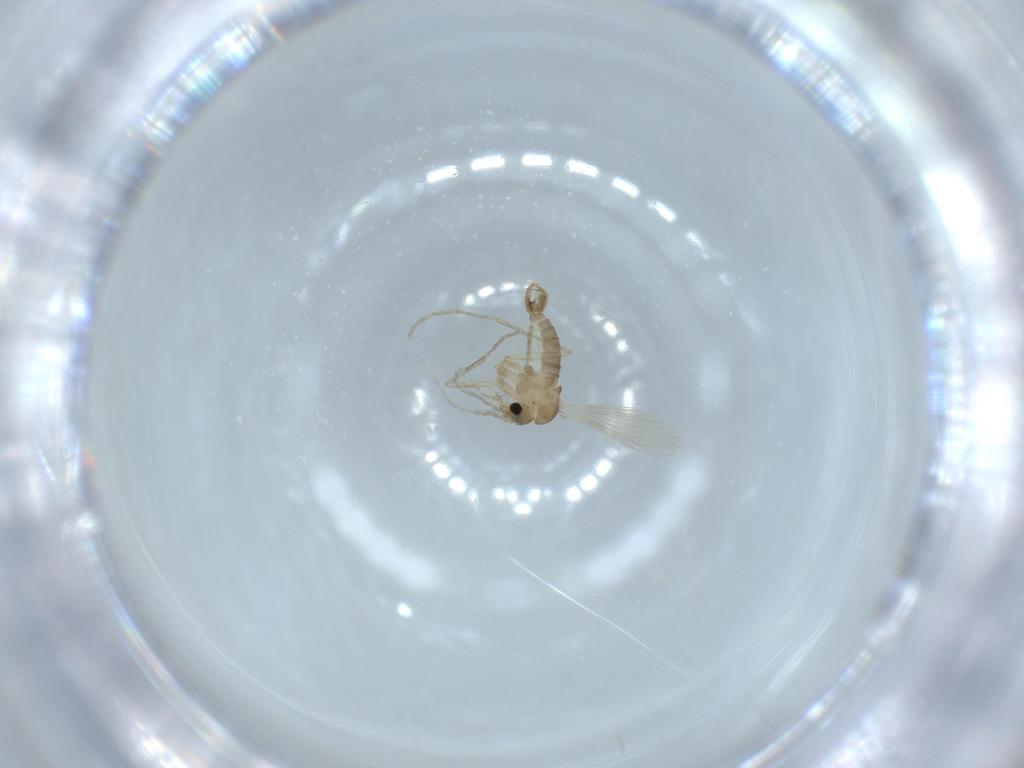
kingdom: Animalia
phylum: Arthropoda
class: Insecta
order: Diptera
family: Psychodidae
